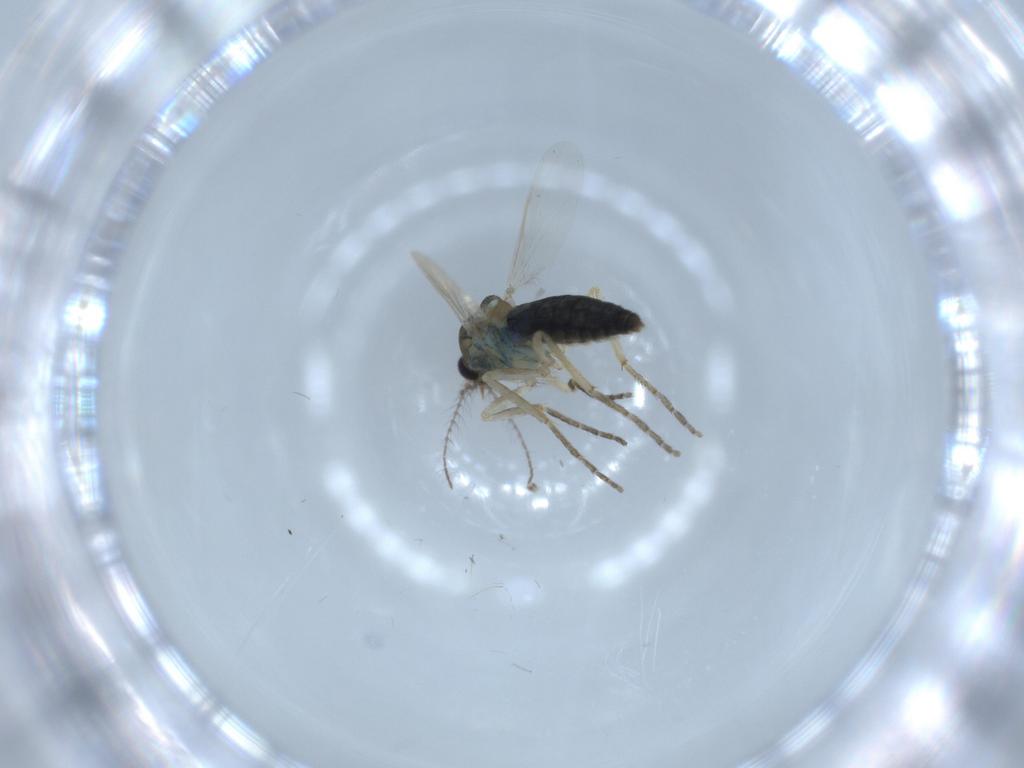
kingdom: Animalia
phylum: Arthropoda
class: Insecta
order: Diptera
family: Ceratopogonidae
